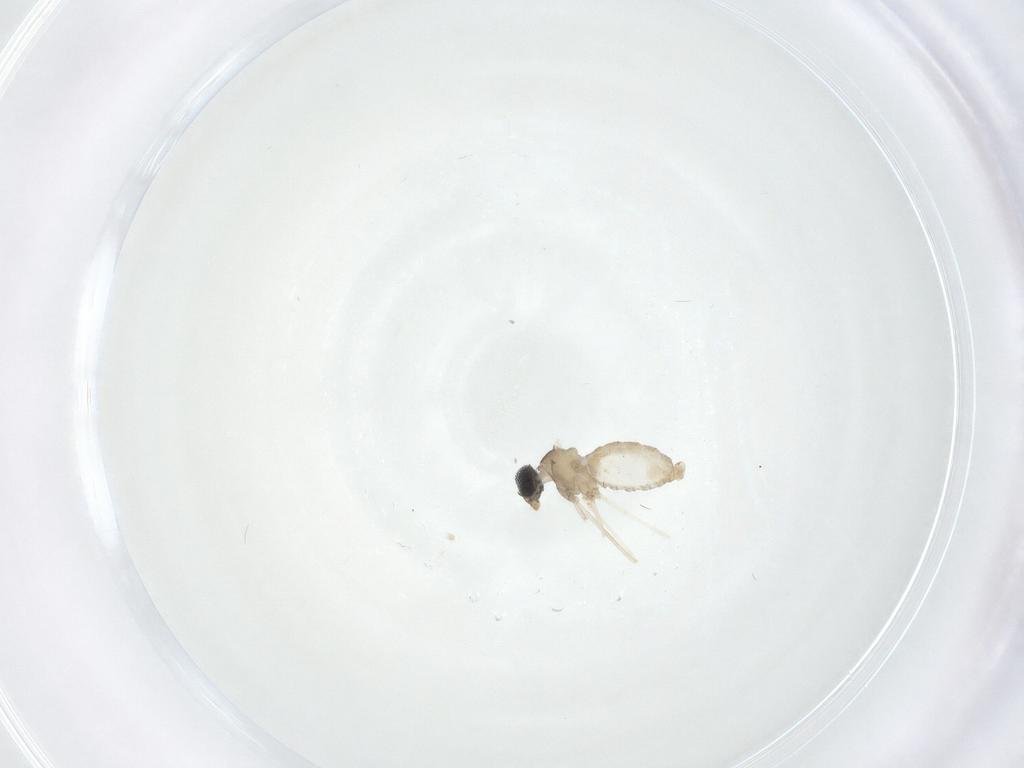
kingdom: Animalia
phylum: Arthropoda
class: Insecta
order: Diptera
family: Cecidomyiidae
